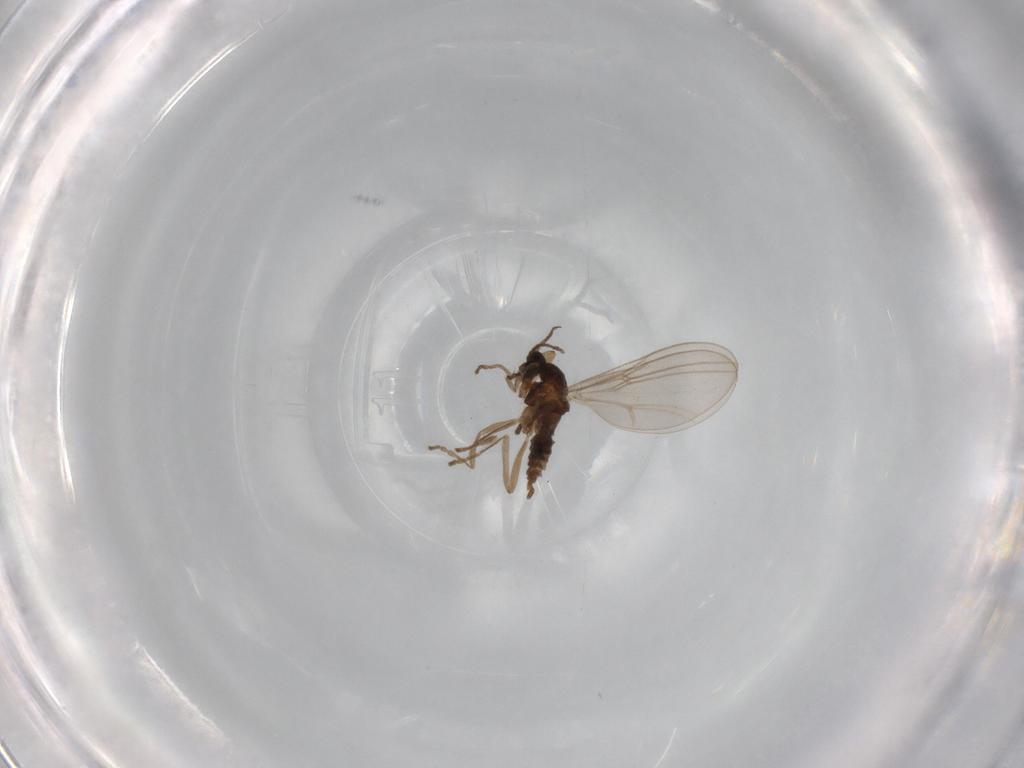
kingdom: Animalia
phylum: Arthropoda
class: Insecta
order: Diptera
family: Cecidomyiidae
